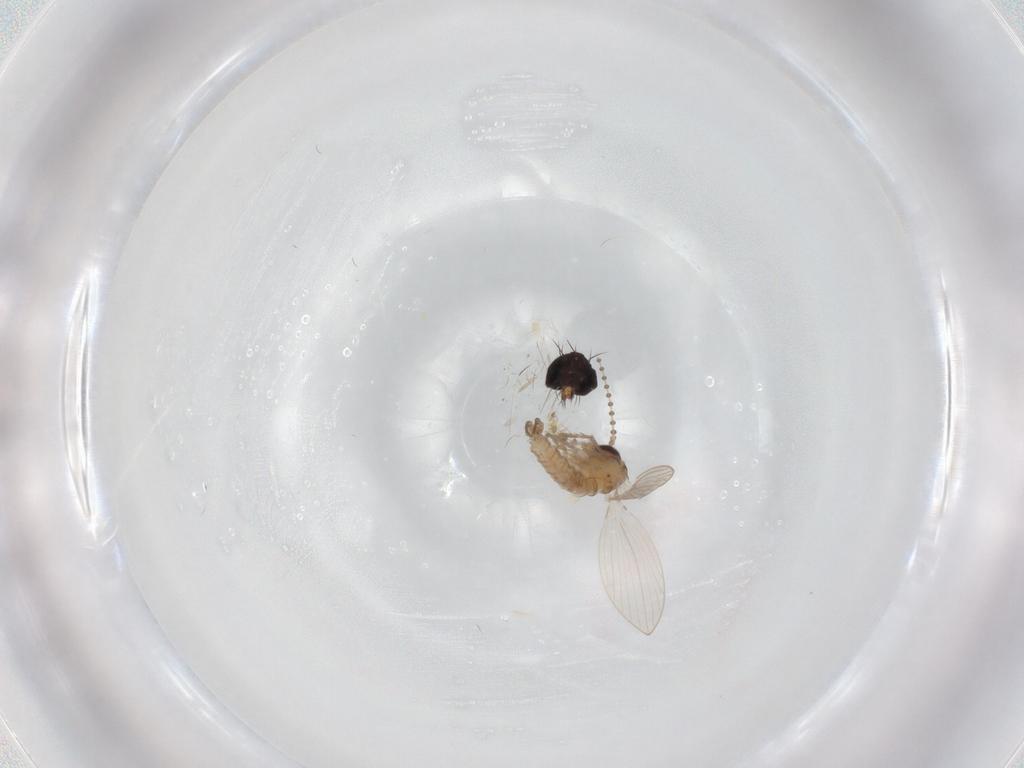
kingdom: Animalia
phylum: Arthropoda
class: Insecta
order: Diptera
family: Psychodidae
